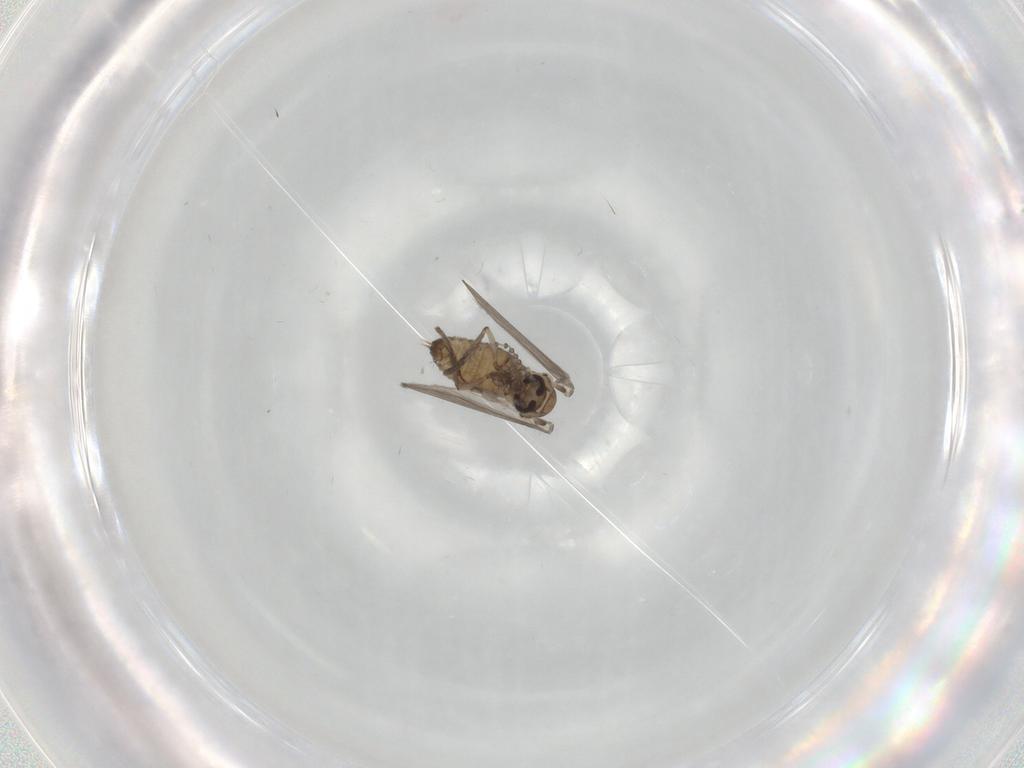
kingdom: Animalia
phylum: Arthropoda
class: Insecta
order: Diptera
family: Psychodidae
